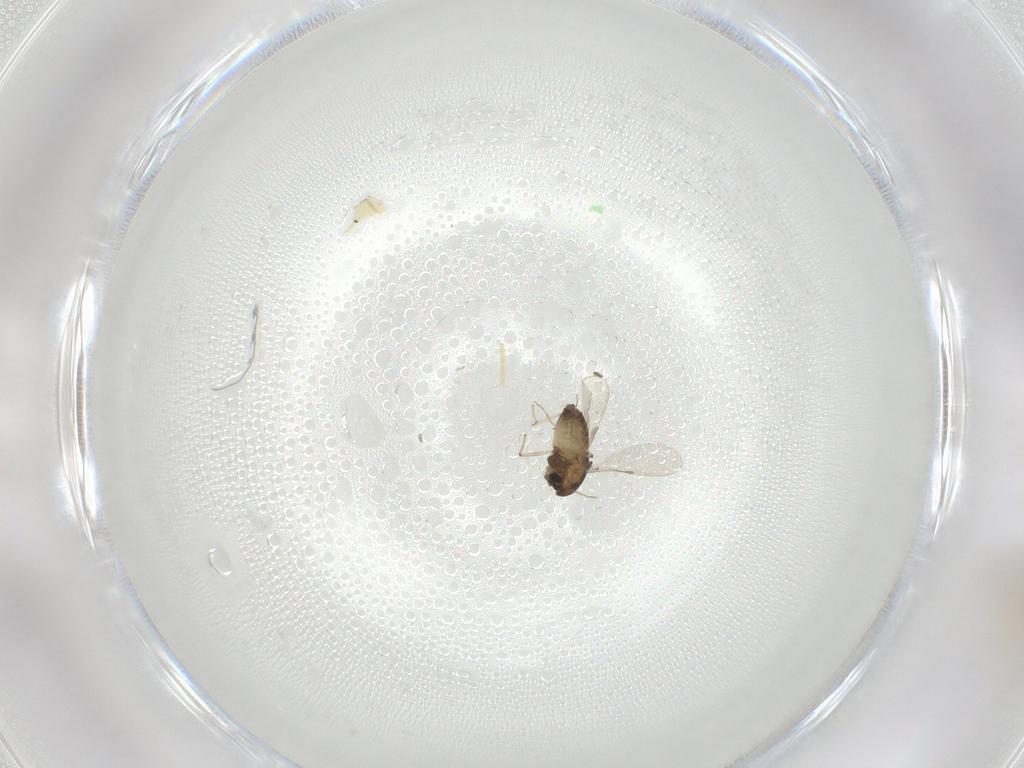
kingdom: Animalia
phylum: Arthropoda
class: Insecta
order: Diptera
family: Chironomidae
